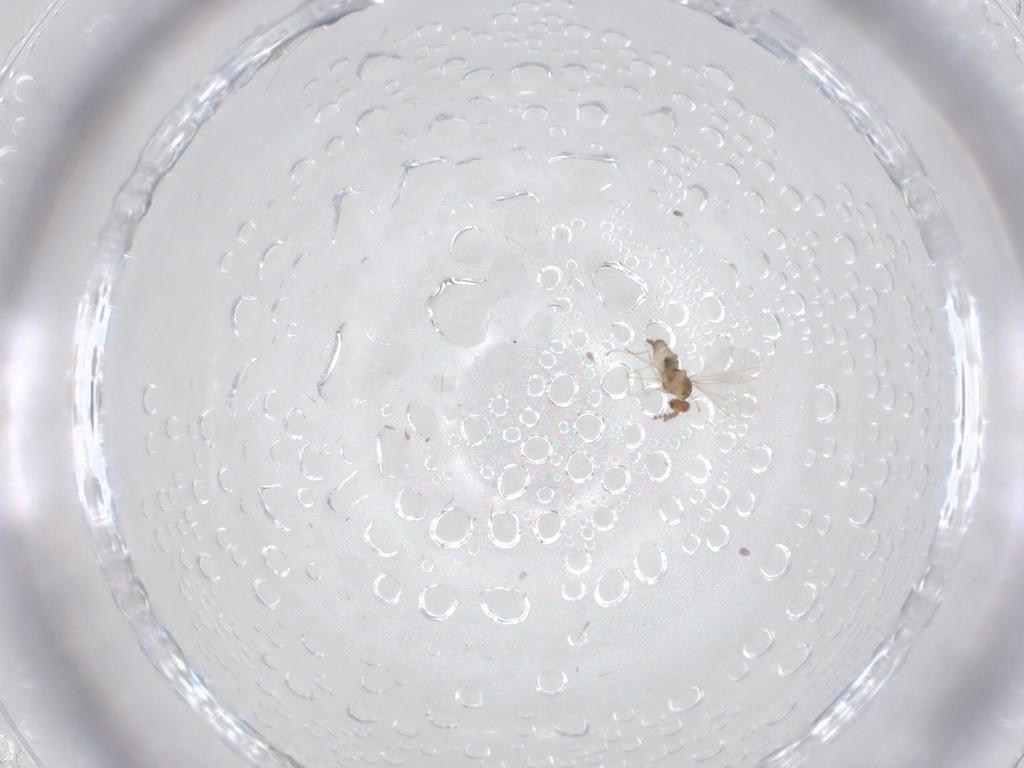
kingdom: Animalia
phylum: Arthropoda
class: Insecta
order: Diptera
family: Cecidomyiidae
